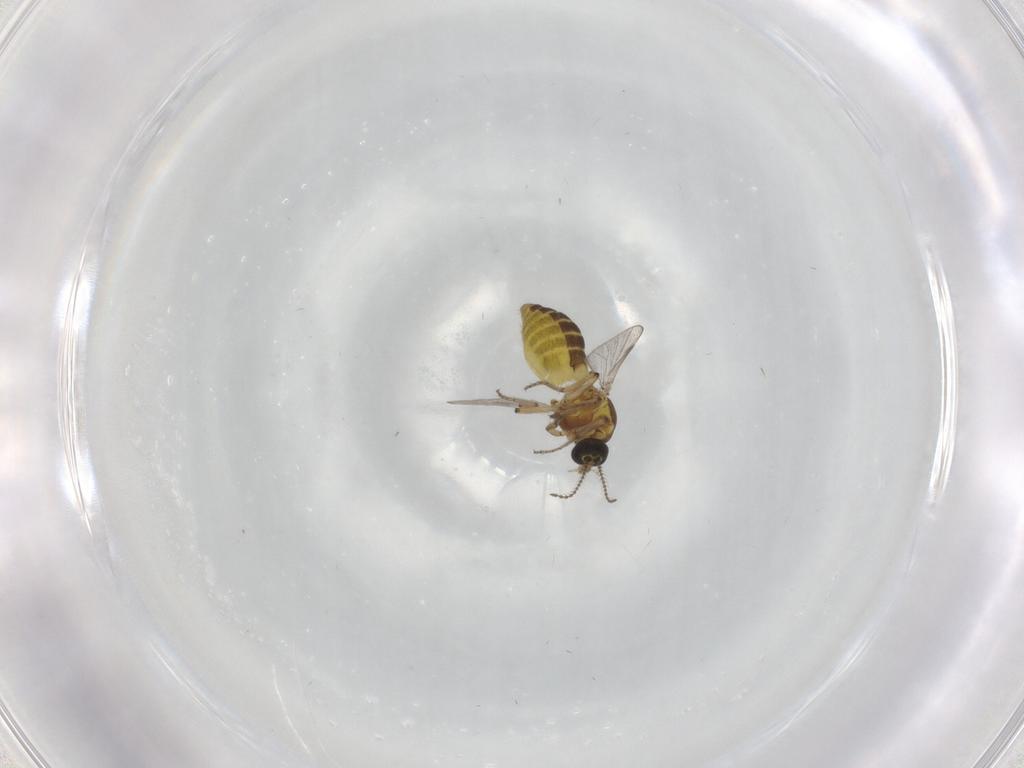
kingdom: Animalia
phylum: Arthropoda
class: Insecta
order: Diptera
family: Ceratopogonidae
